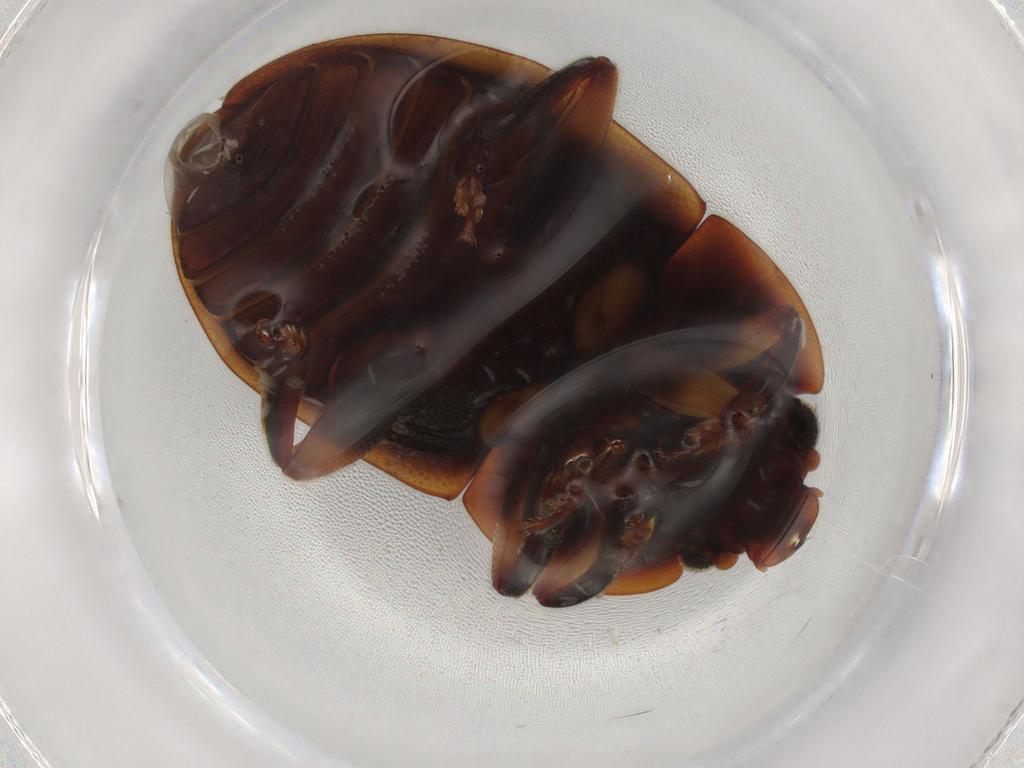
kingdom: Animalia
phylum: Arthropoda
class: Insecta
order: Coleoptera
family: Nitidulidae
